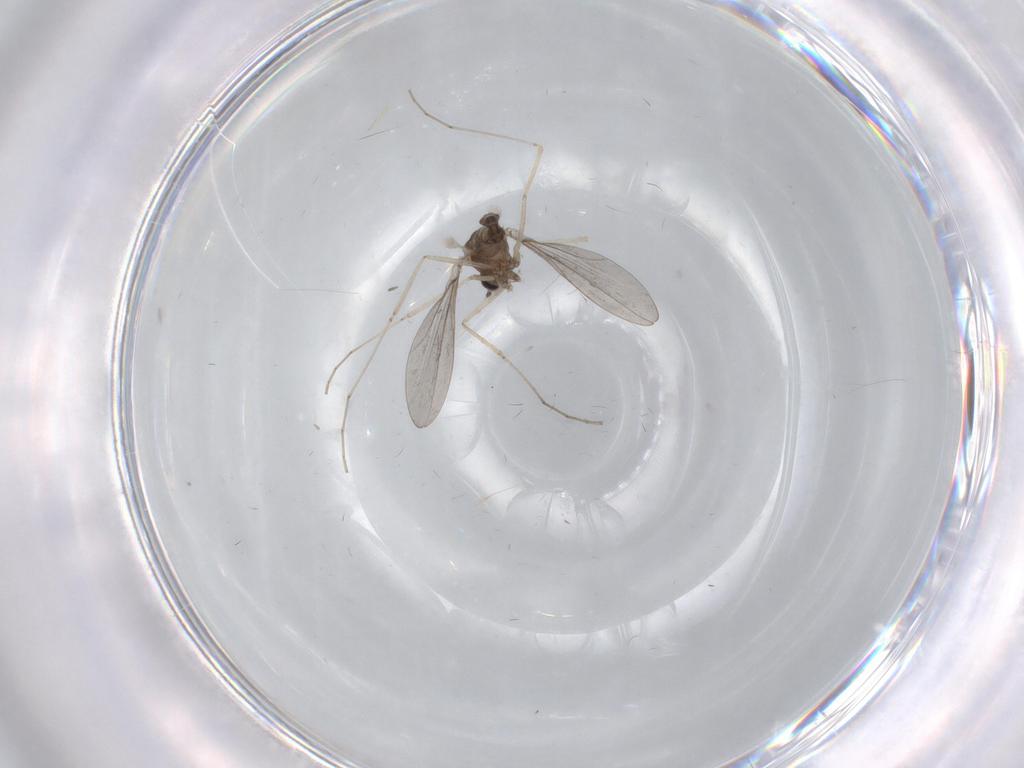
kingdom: Animalia
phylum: Arthropoda
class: Insecta
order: Diptera
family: Cecidomyiidae
